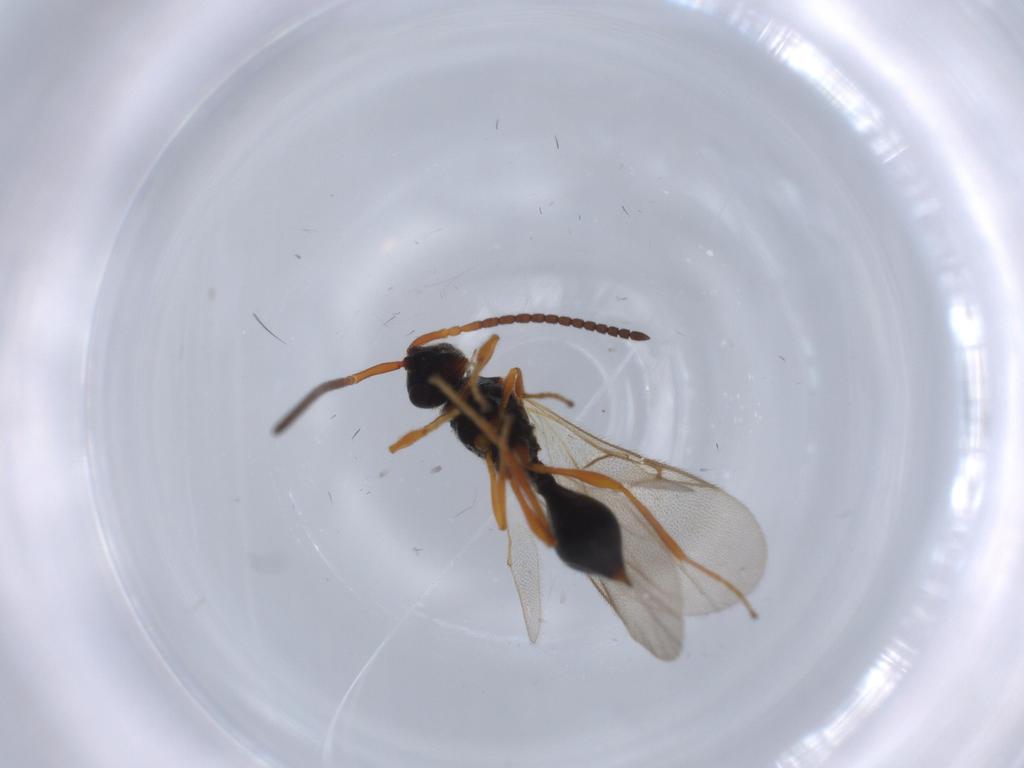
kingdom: Animalia
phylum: Arthropoda
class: Insecta
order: Hymenoptera
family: Diapriidae
